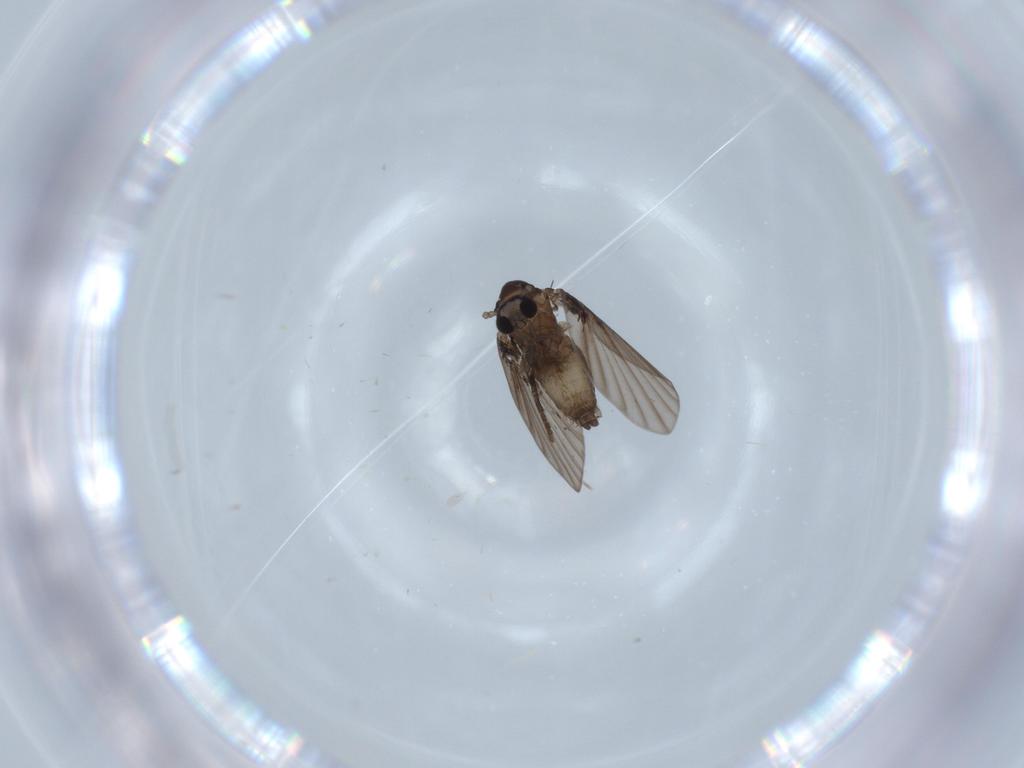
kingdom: Animalia
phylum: Arthropoda
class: Insecta
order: Diptera
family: Psychodidae
